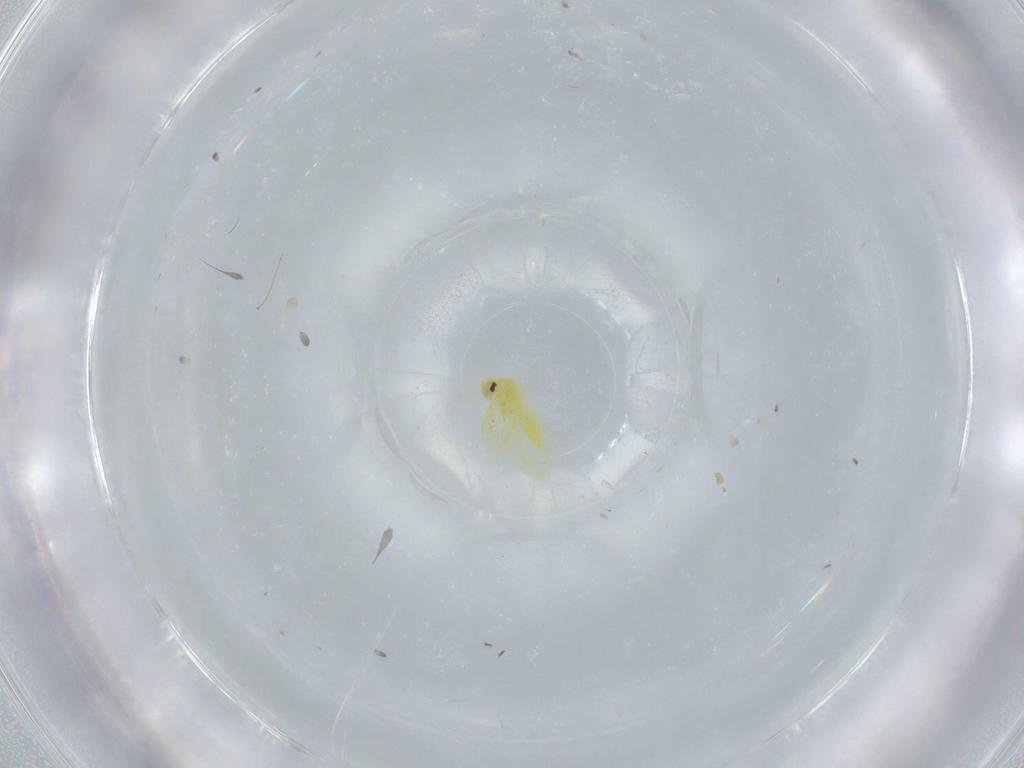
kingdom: Animalia
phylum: Arthropoda
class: Insecta
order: Hemiptera
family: Aleyrodidae
